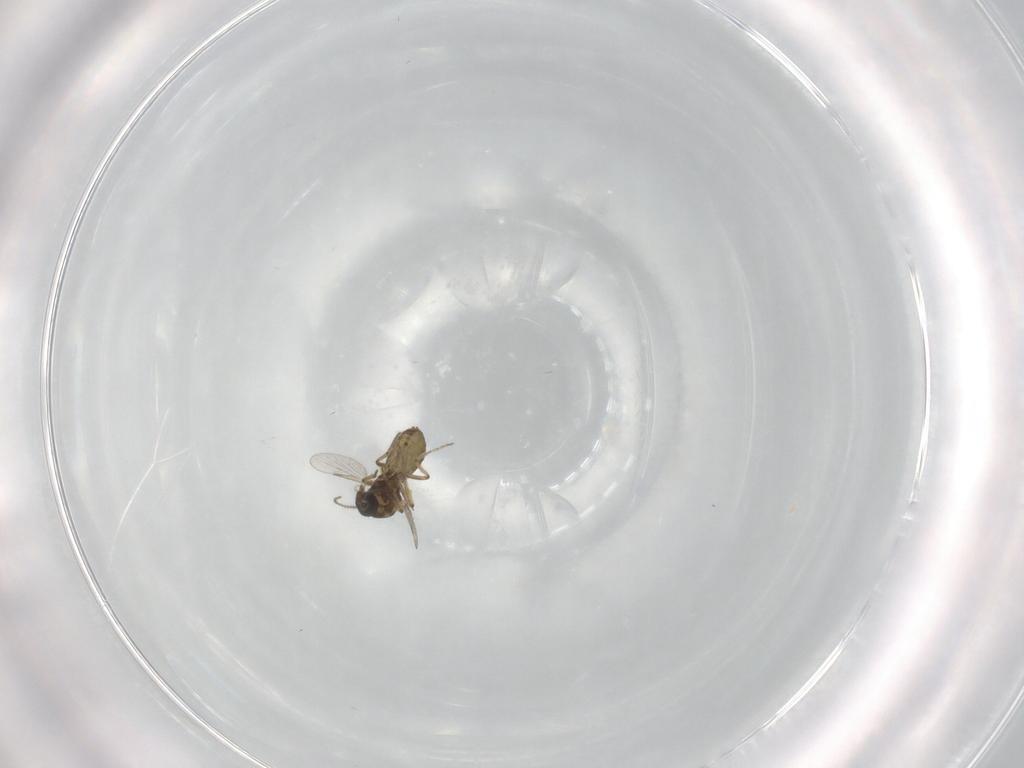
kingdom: Animalia
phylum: Arthropoda
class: Insecta
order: Diptera
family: Ceratopogonidae
